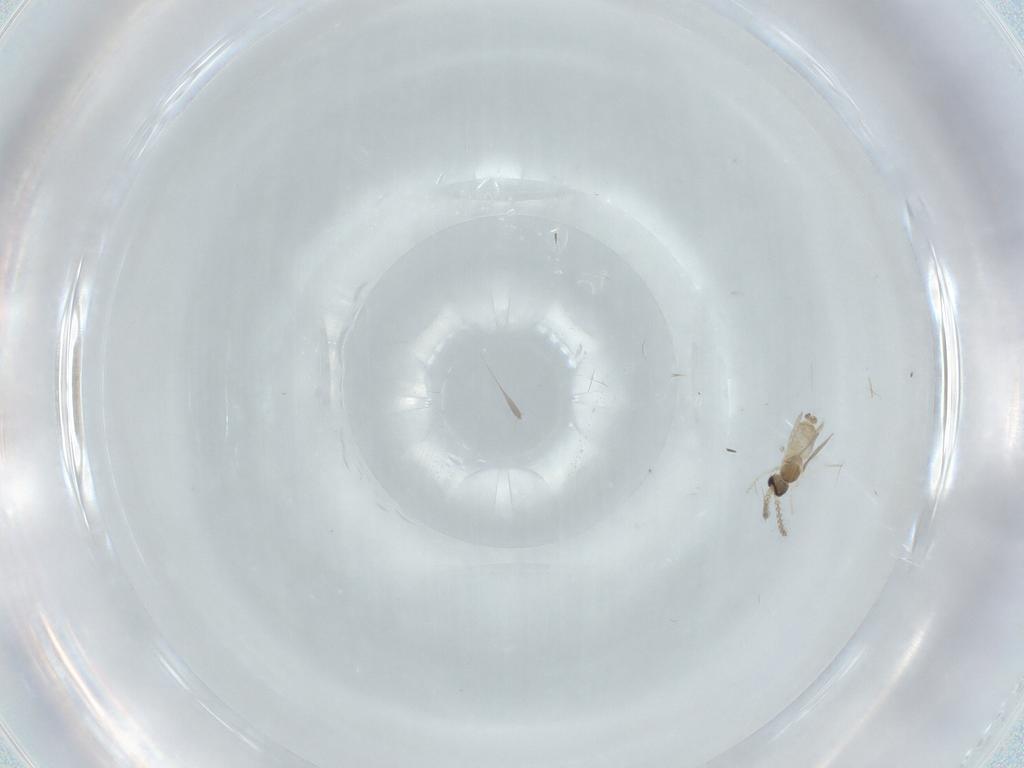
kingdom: Animalia
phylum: Arthropoda
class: Insecta
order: Diptera
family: Cecidomyiidae
